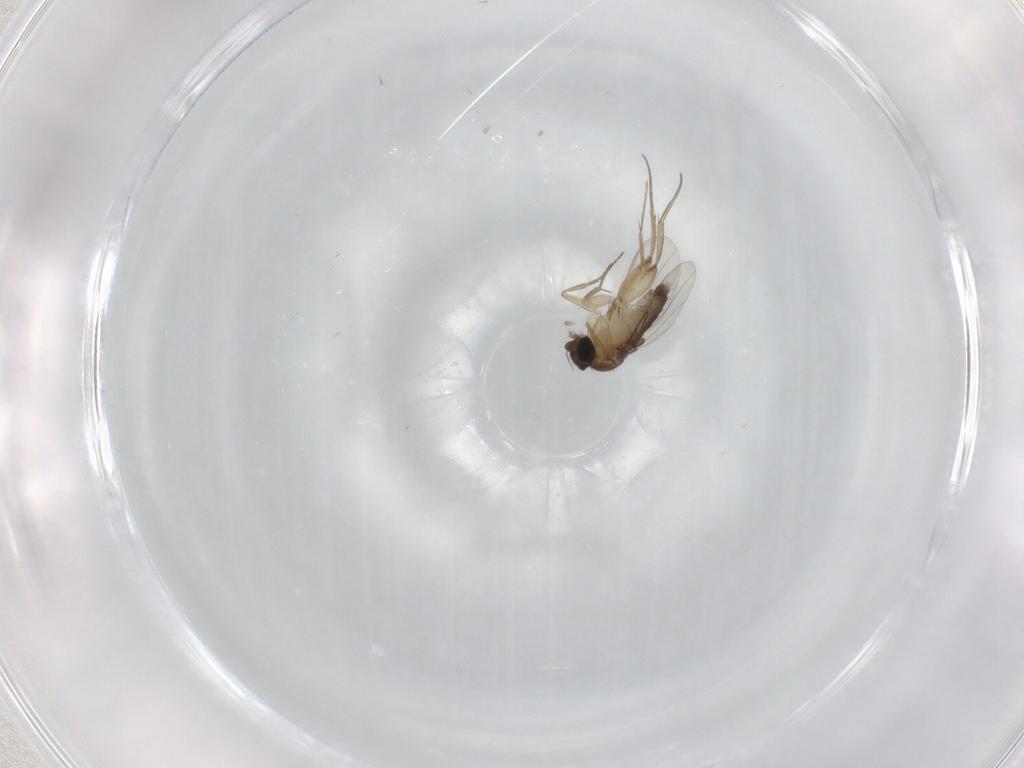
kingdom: Animalia
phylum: Arthropoda
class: Insecta
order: Diptera
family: Phoridae
